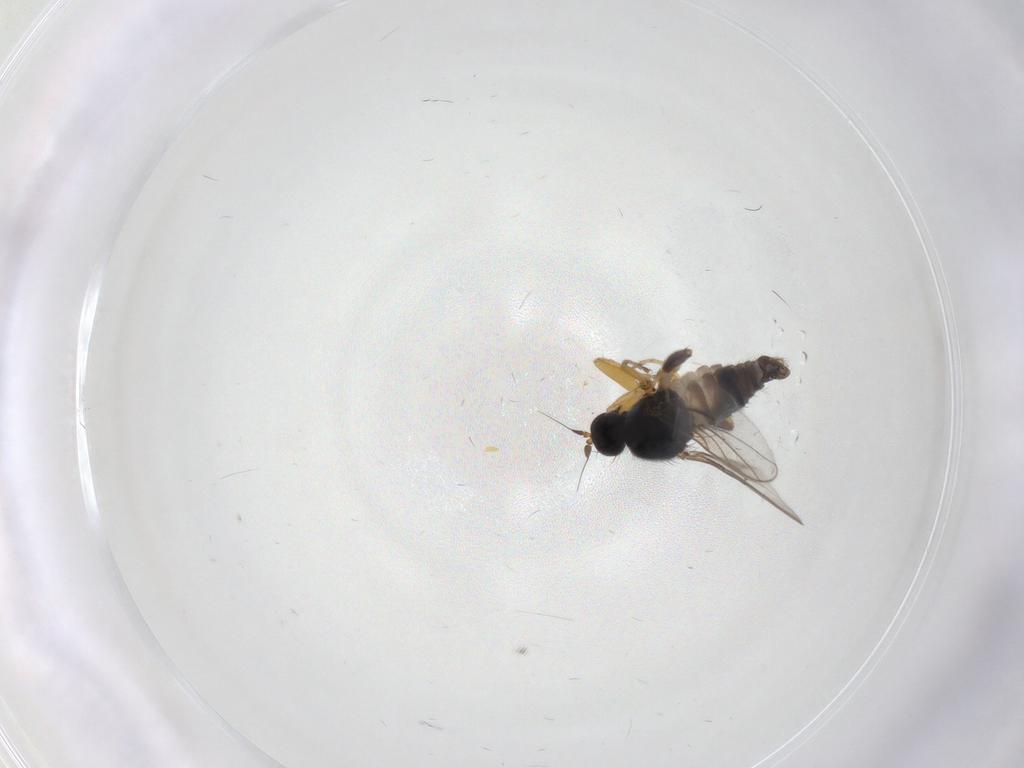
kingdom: Animalia
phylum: Arthropoda
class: Insecta
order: Diptera
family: Hybotidae
